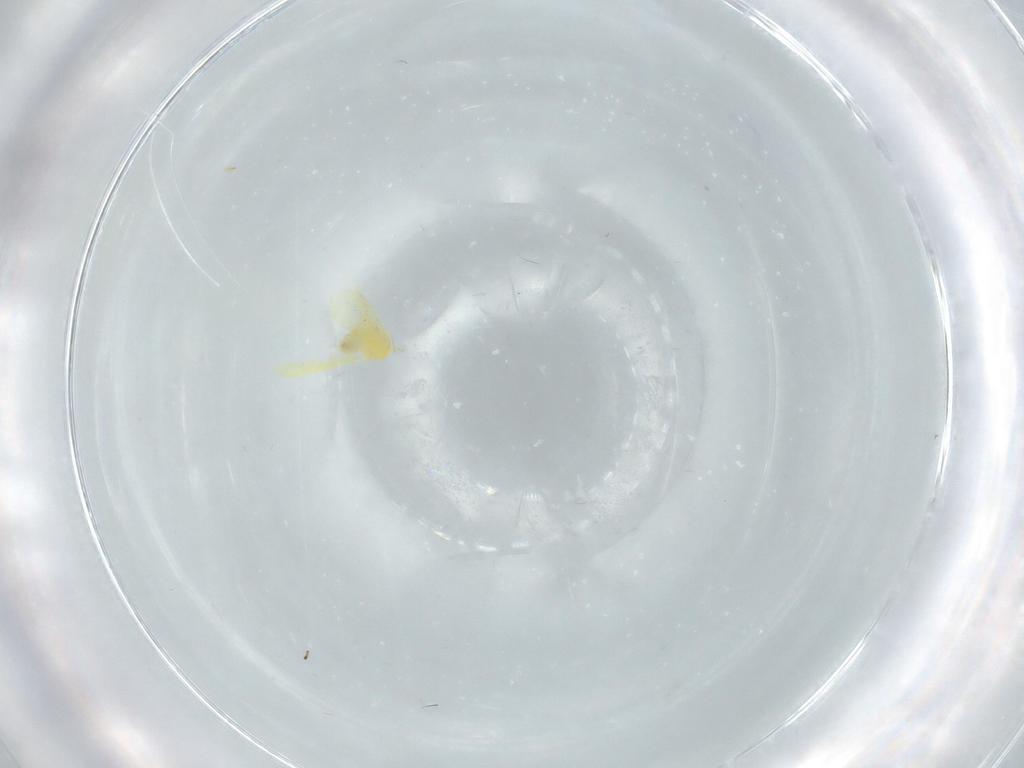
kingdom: Animalia
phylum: Arthropoda
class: Insecta
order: Hemiptera
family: Aleyrodidae
